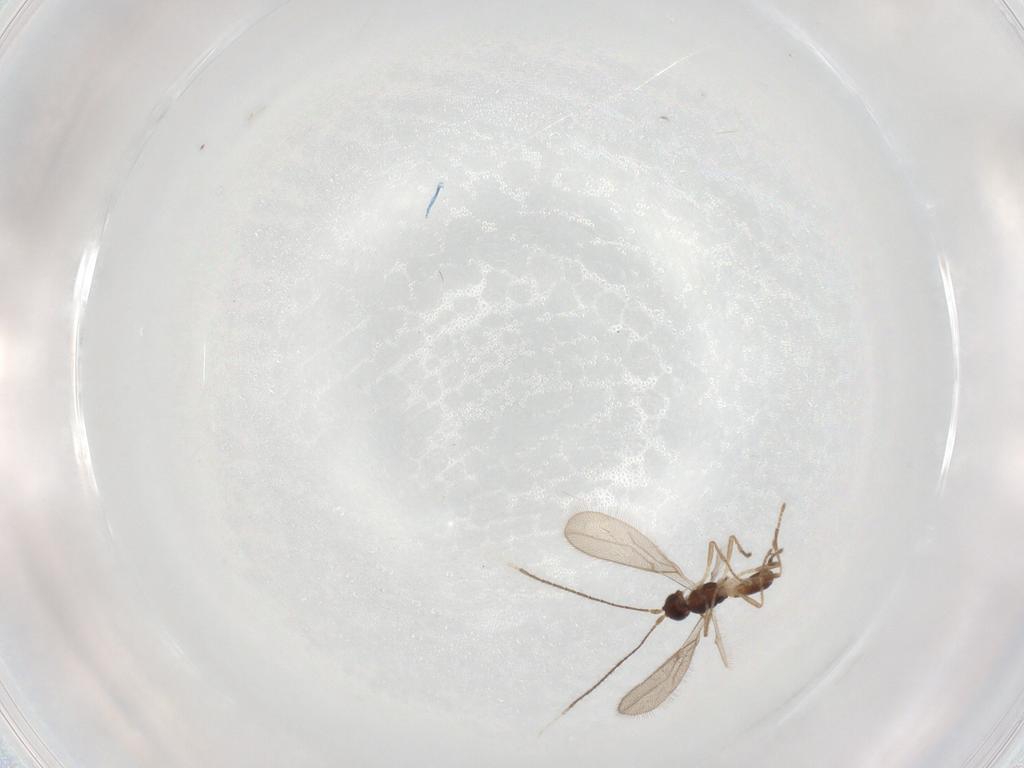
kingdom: Animalia
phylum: Arthropoda
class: Insecta
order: Hymenoptera
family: Braconidae
